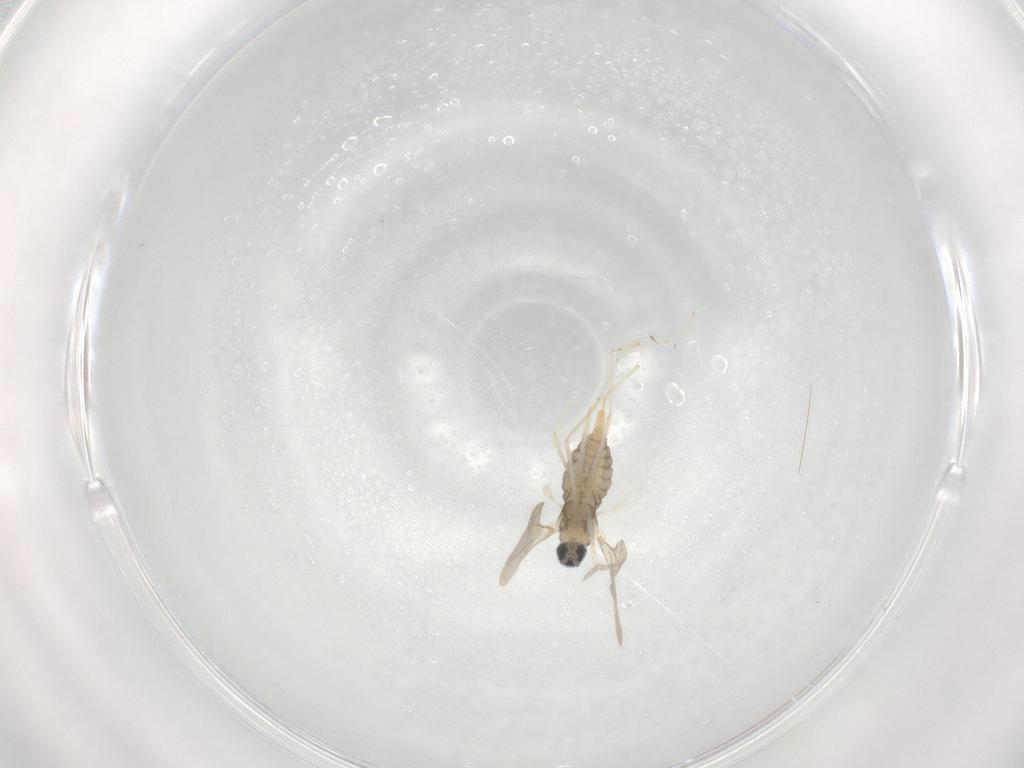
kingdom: Animalia
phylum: Arthropoda
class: Insecta
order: Diptera
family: Cecidomyiidae
